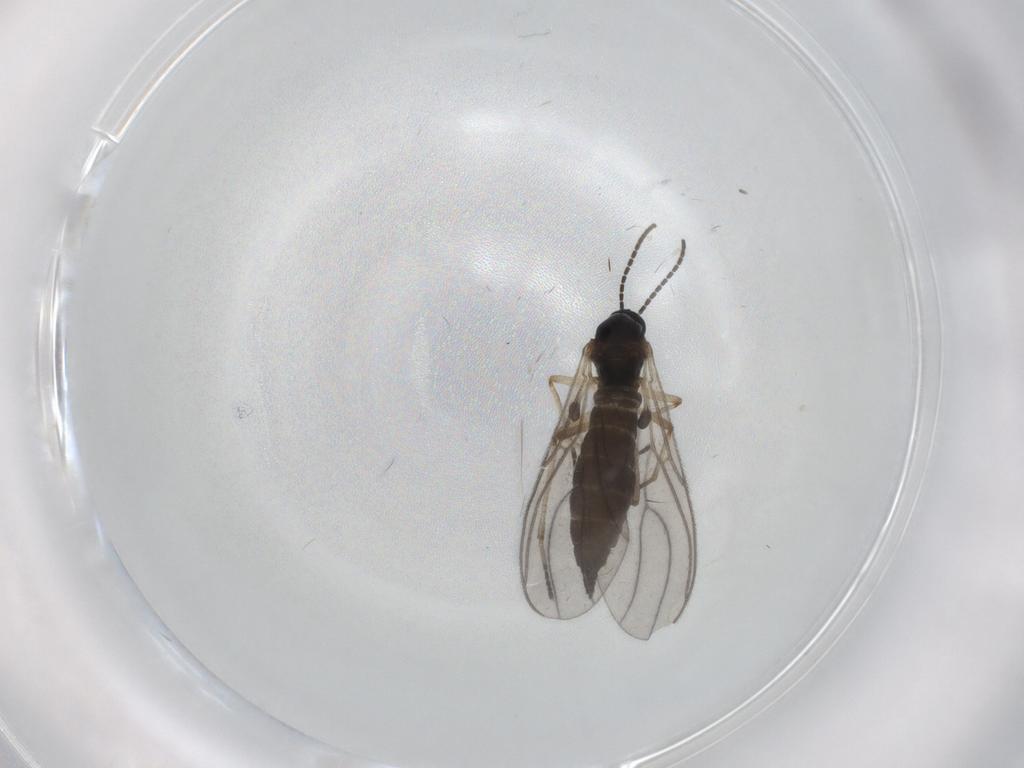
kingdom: Animalia
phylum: Arthropoda
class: Insecta
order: Diptera
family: Sciaridae
